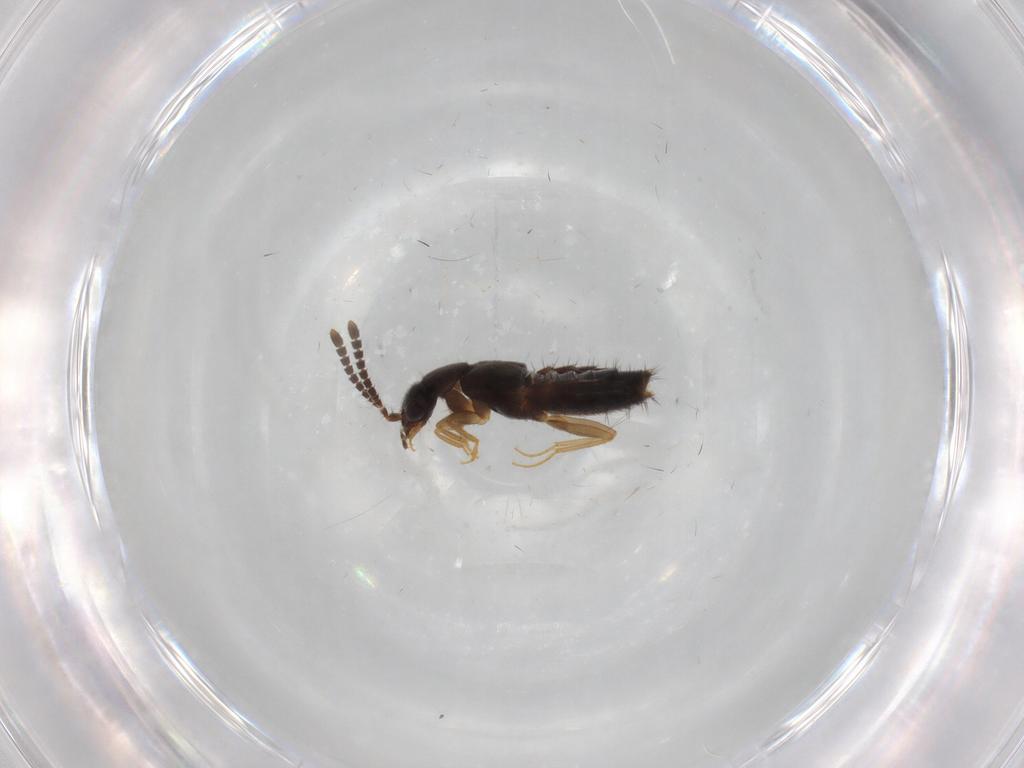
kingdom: Animalia
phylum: Arthropoda
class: Insecta
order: Coleoptera
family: Staphylinidae
